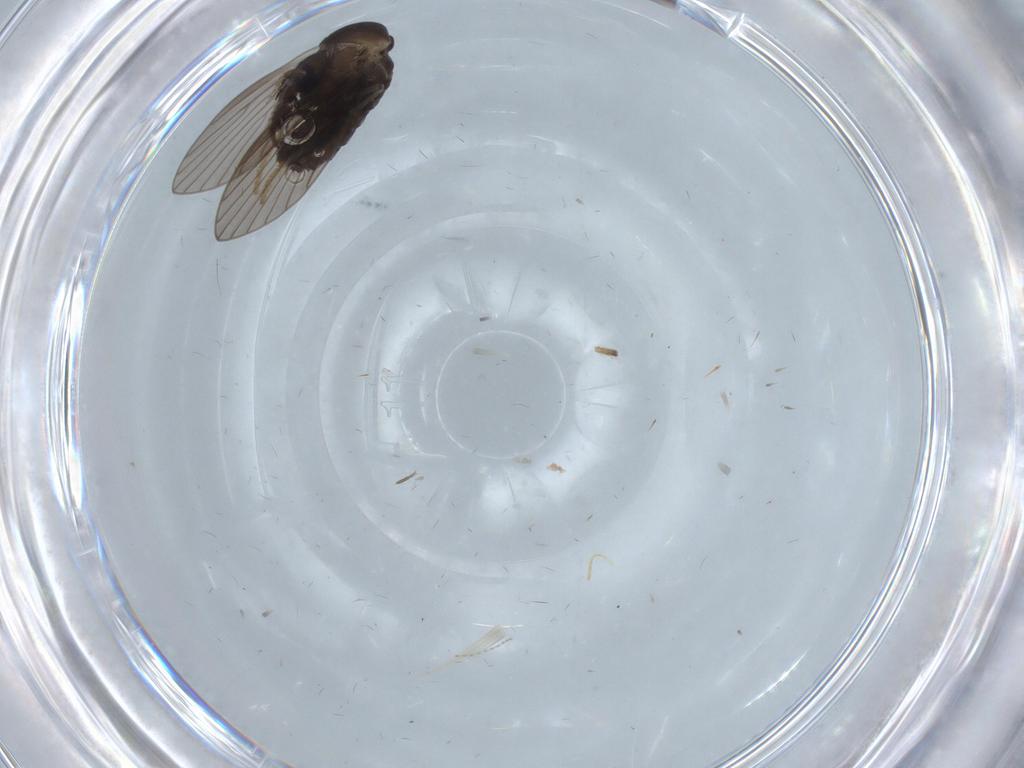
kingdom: Animalia
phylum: Arthropoda
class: Insecta
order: Diptera
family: Psychodidae
